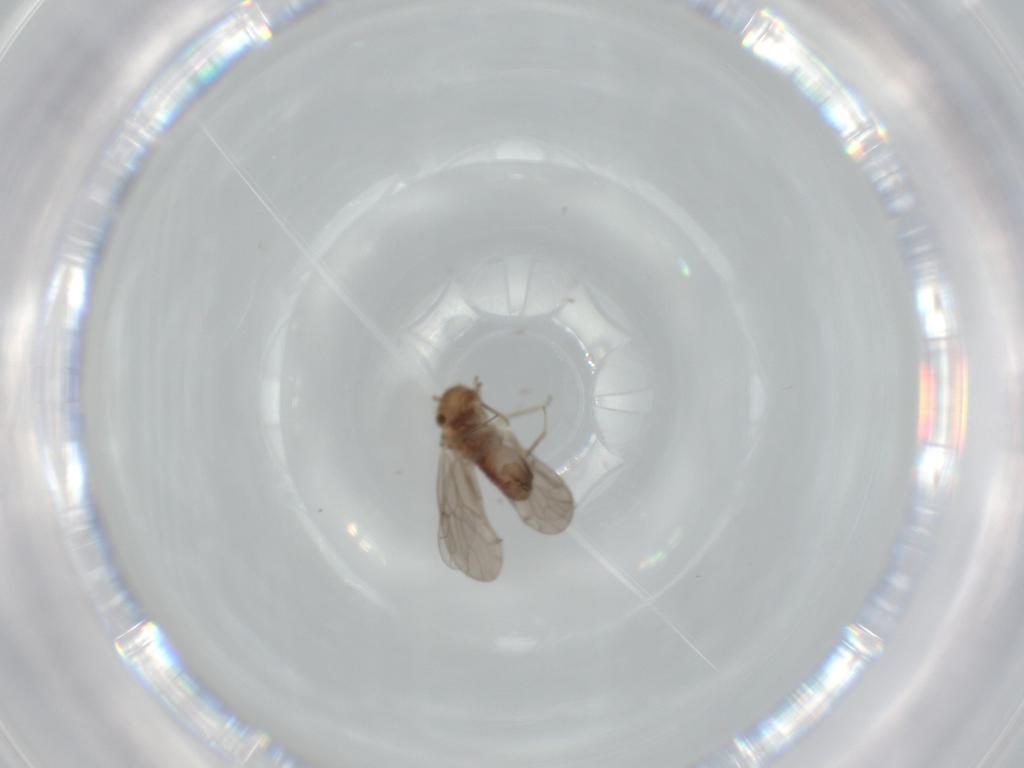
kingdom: Animalia
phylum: Arthropoda
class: Insecta
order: Psocodea
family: Ectopsocidae
